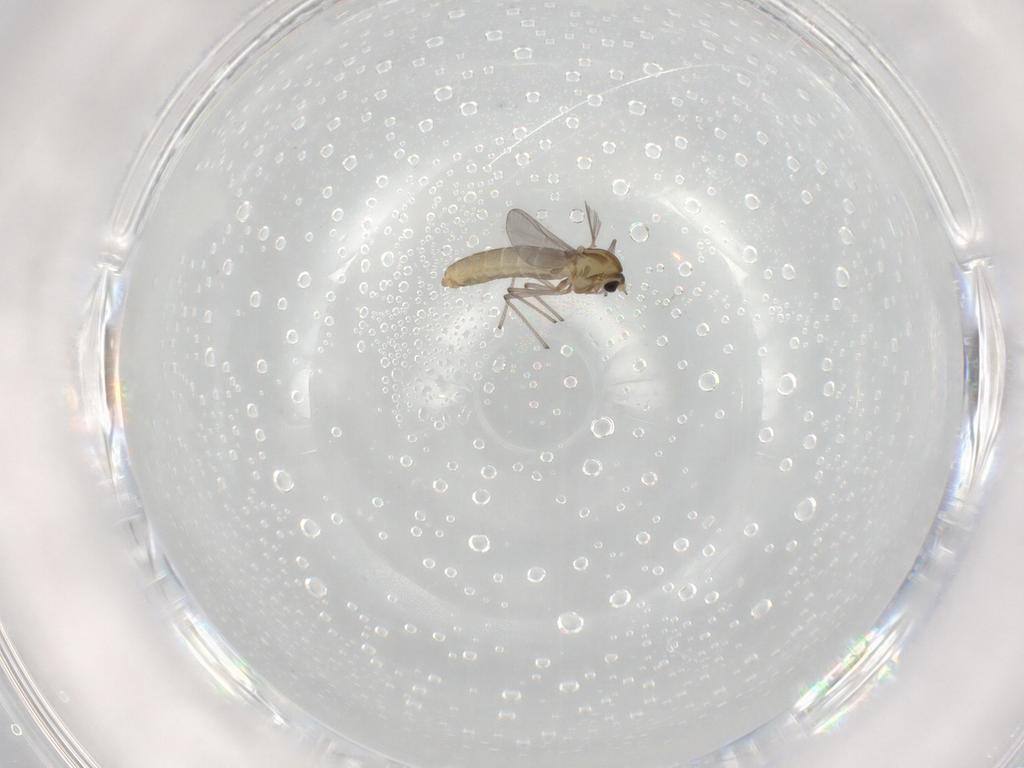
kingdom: Animalia
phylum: Arthropoda
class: Insecta
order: Diptera
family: Chironomidae
